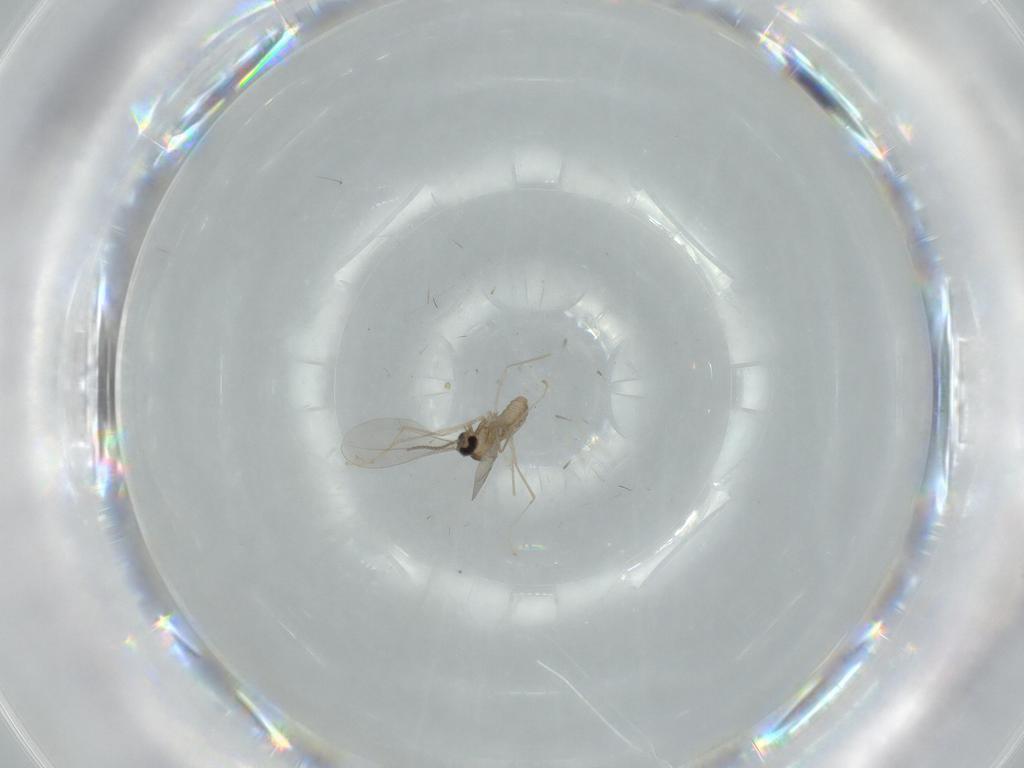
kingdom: Animalia
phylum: Arthropoda
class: Insecta
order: Diptera
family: Cecidomyiidae
